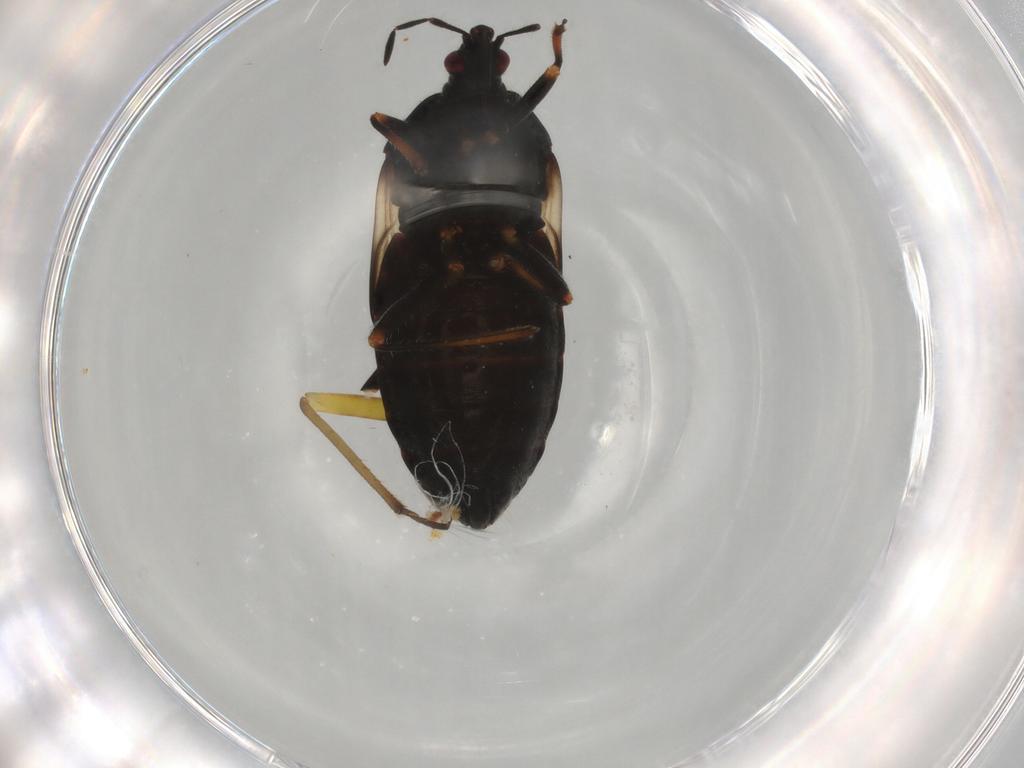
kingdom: Animalia
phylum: Arthropoda
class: Insecta
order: Hemiptera
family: Miridae
